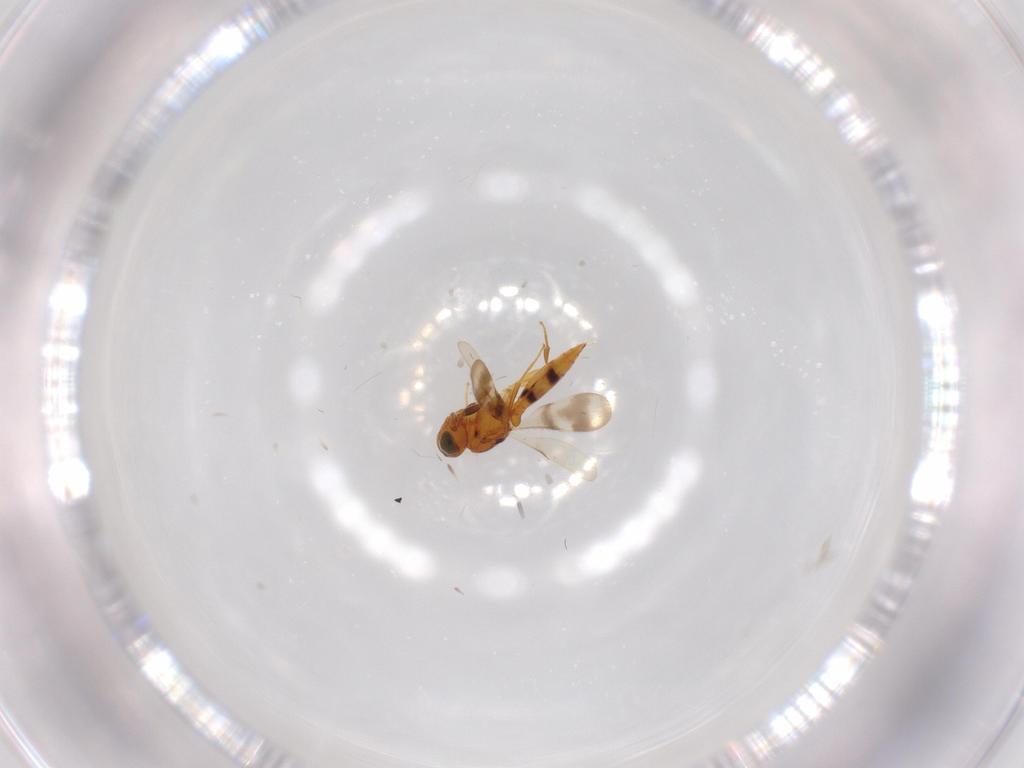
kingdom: Animalia
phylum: Arthropoda
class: Insecta
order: Hymenoptera
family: Scelionidae
